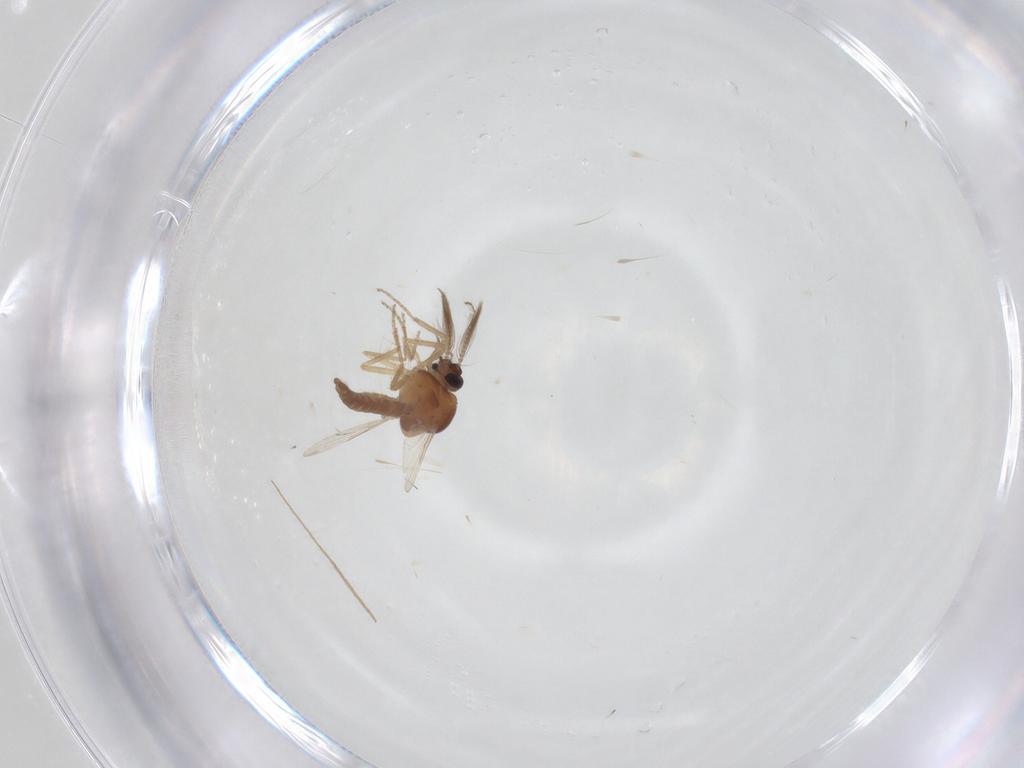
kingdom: Animalia
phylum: Arthropoda
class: Insecta
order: Diptera
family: Ceratopogonidae
